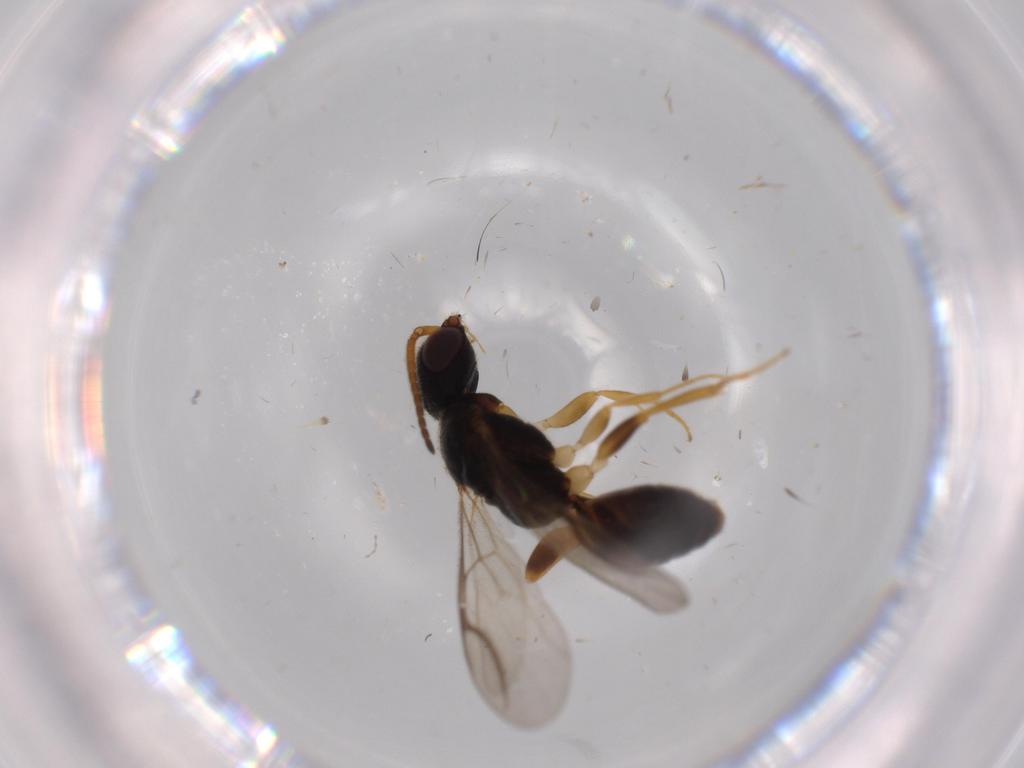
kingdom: Animalia
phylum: Arthropoda
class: Insecta
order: Hymenoptera
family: Bethylidae
